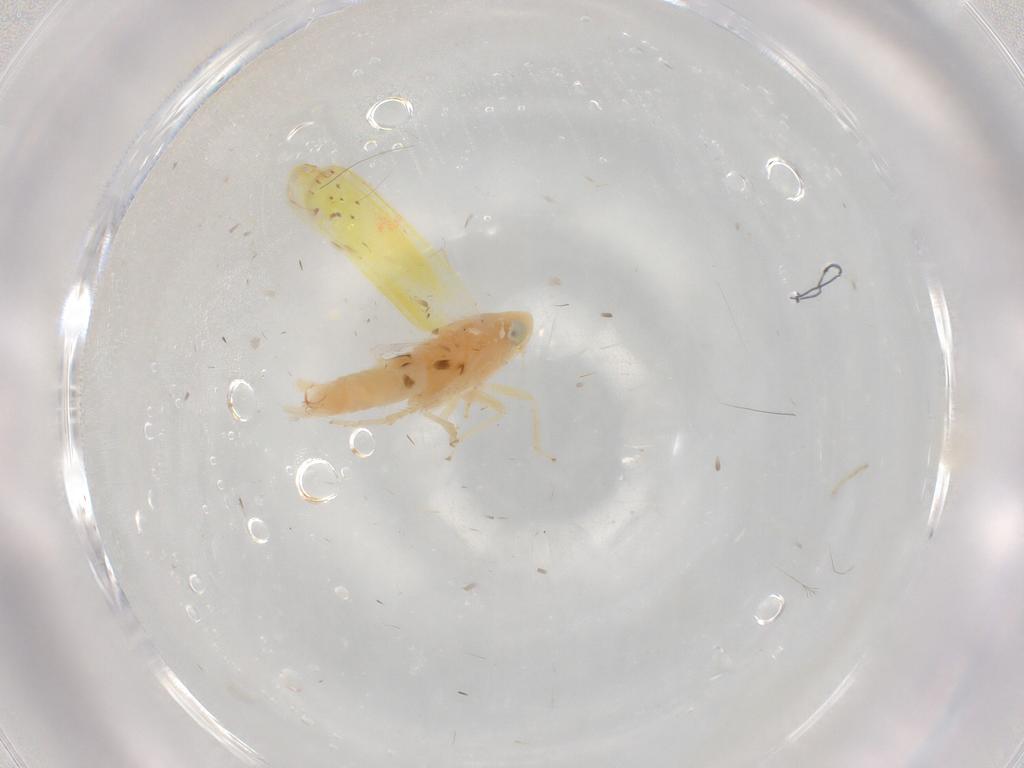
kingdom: Animalia
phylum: Arthropoda
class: Insecta
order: Hemiptera
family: Cicadellidae
